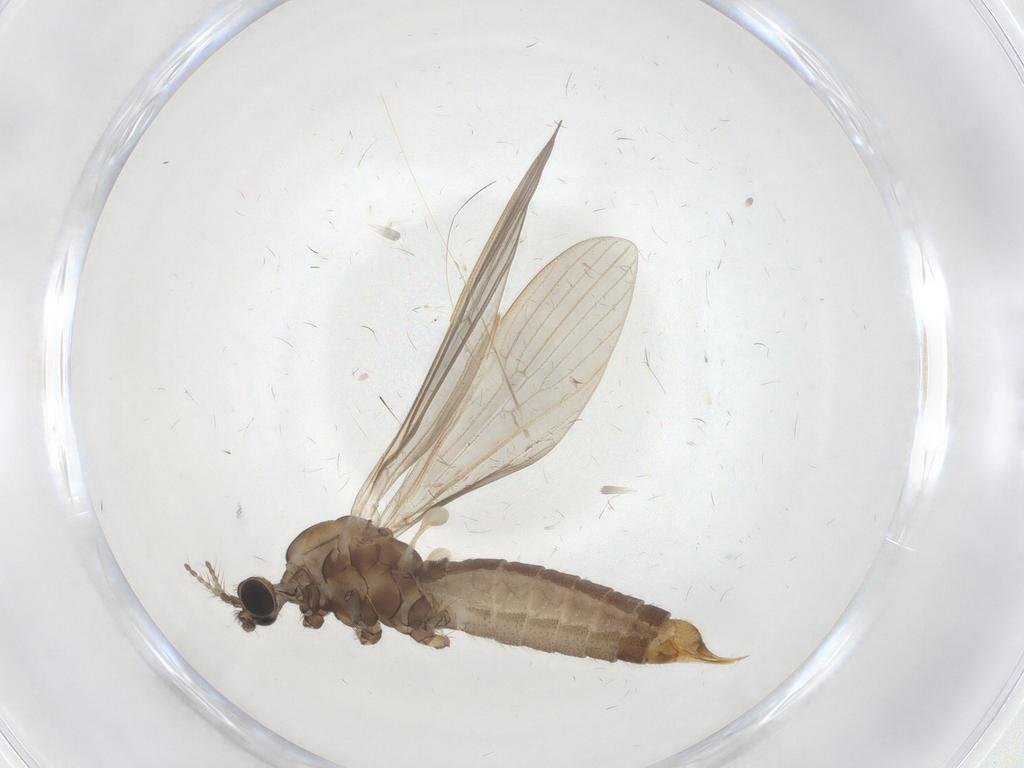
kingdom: Animalia
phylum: Arthropoda
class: Insecta
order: Diptera
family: Limoniidae
